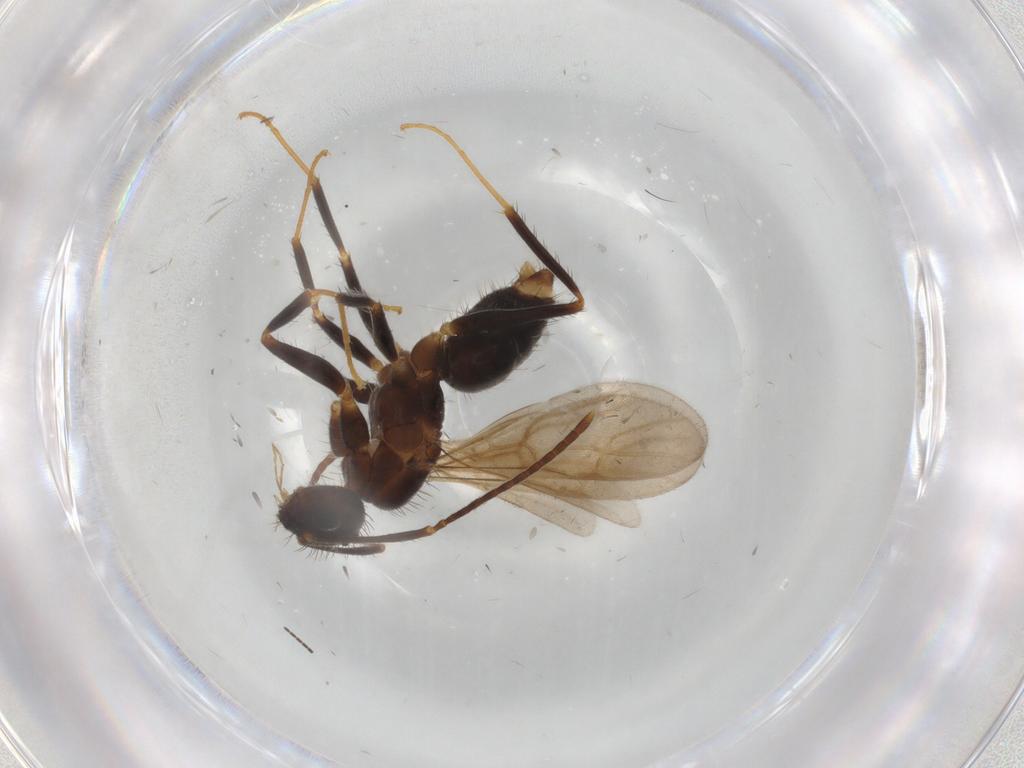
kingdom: Animalia
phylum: Arthropoda
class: Insecta
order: Hymenoptera
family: Formicidae
